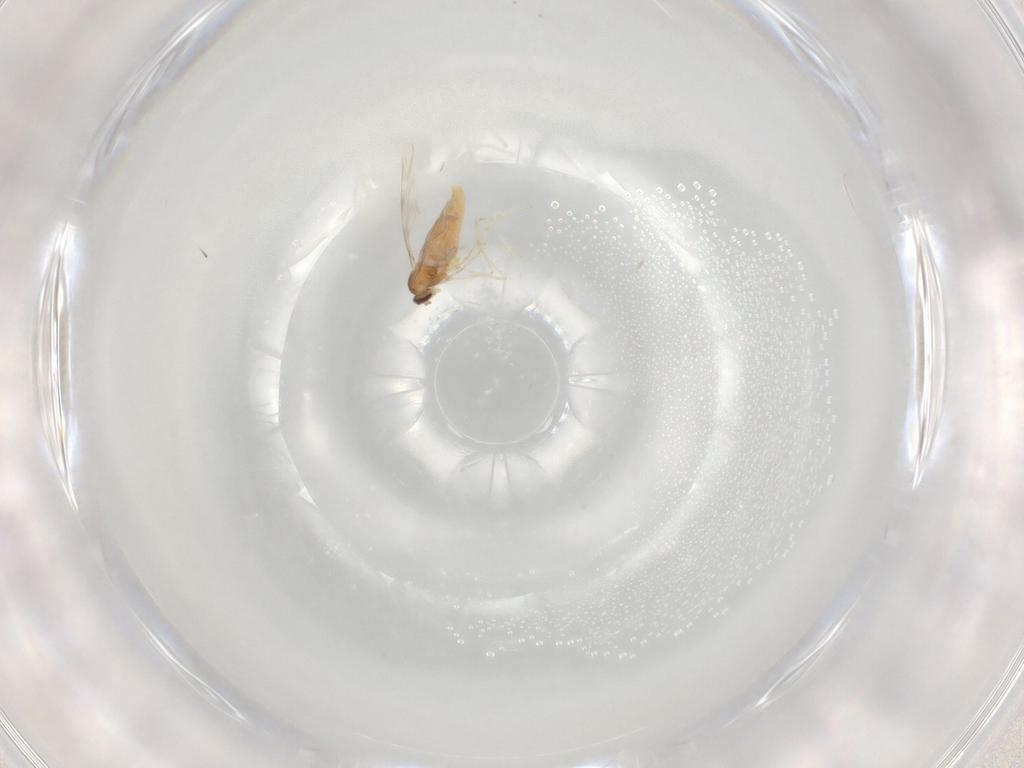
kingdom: Animalia
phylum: Arthropoda
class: Insecta
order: Diptera
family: Cecidomyiidae
